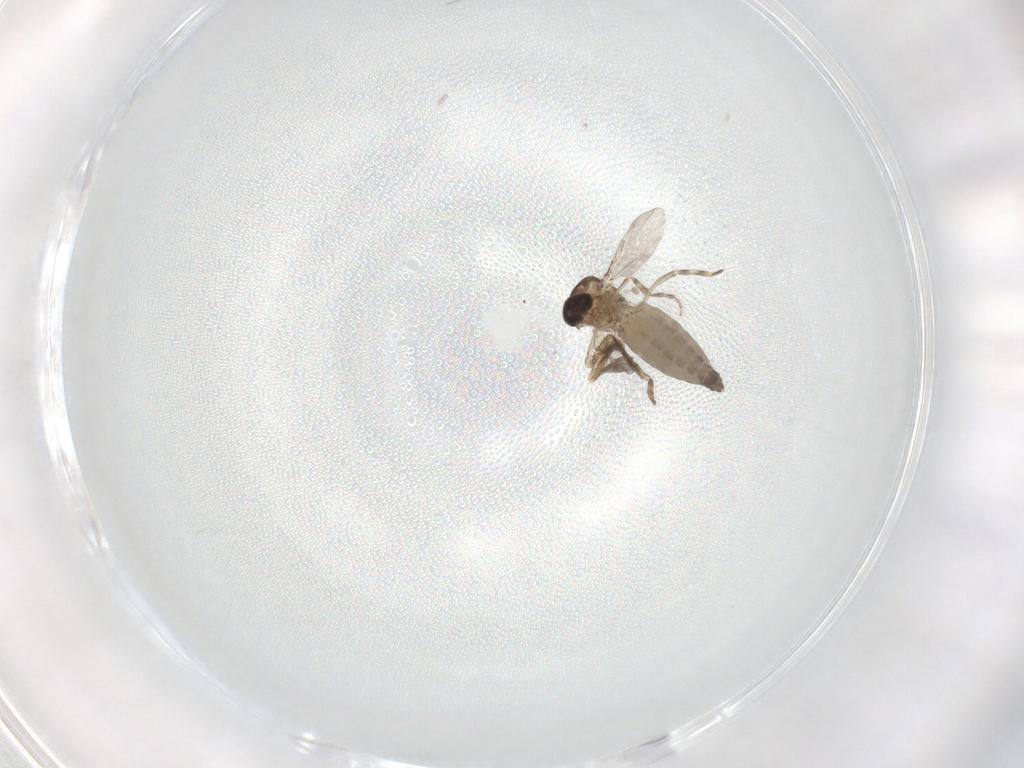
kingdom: Animalia
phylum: Arthropoda
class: Insecta
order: Diptera
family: Ceratopogonidae
